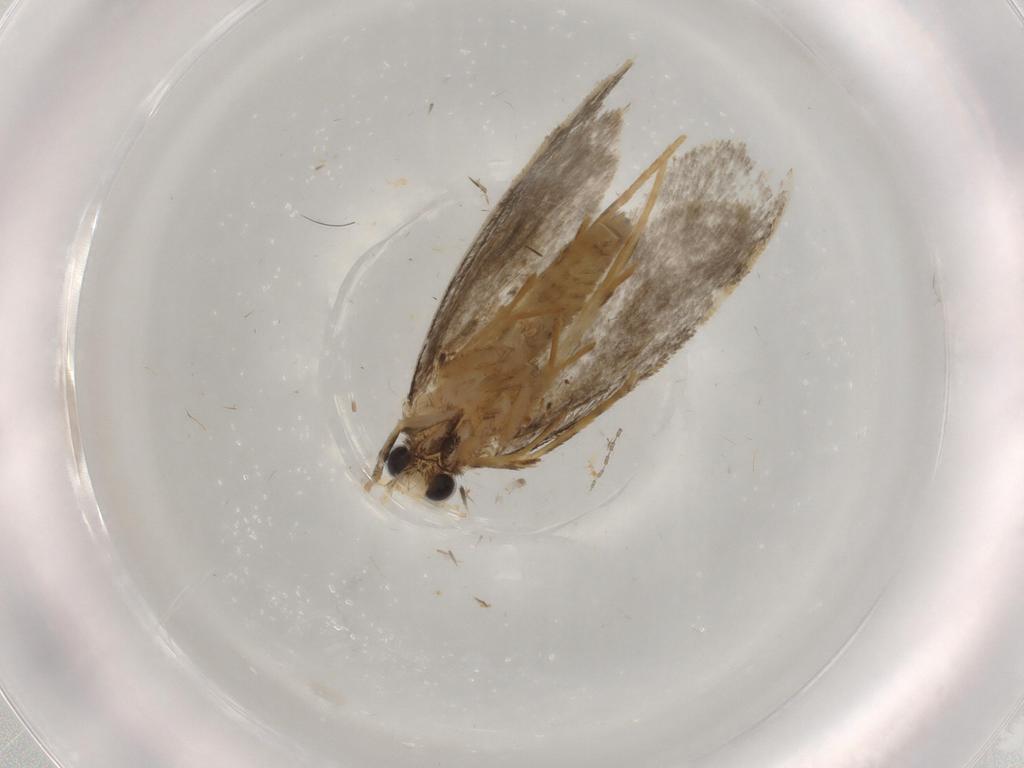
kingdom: Animalia
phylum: Arthropoda
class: Insecta
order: Lepidoptera
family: Psychidae
